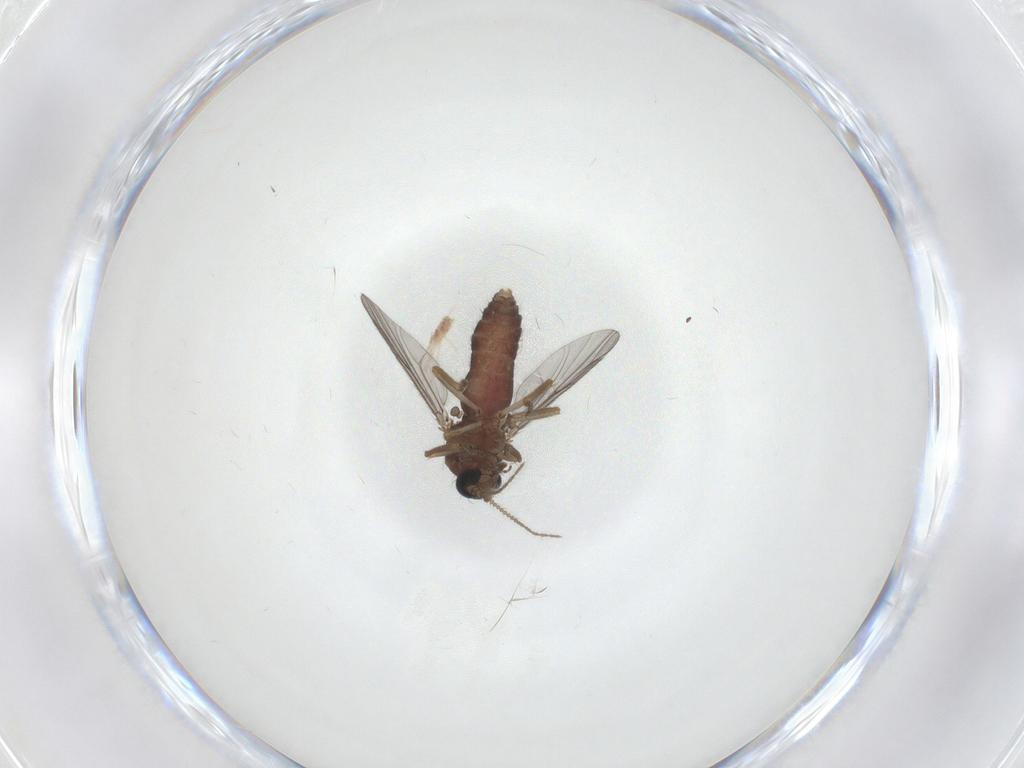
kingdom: Animalia
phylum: Arthropoda
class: Insecta
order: Diptera
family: Ceratopogonidae
